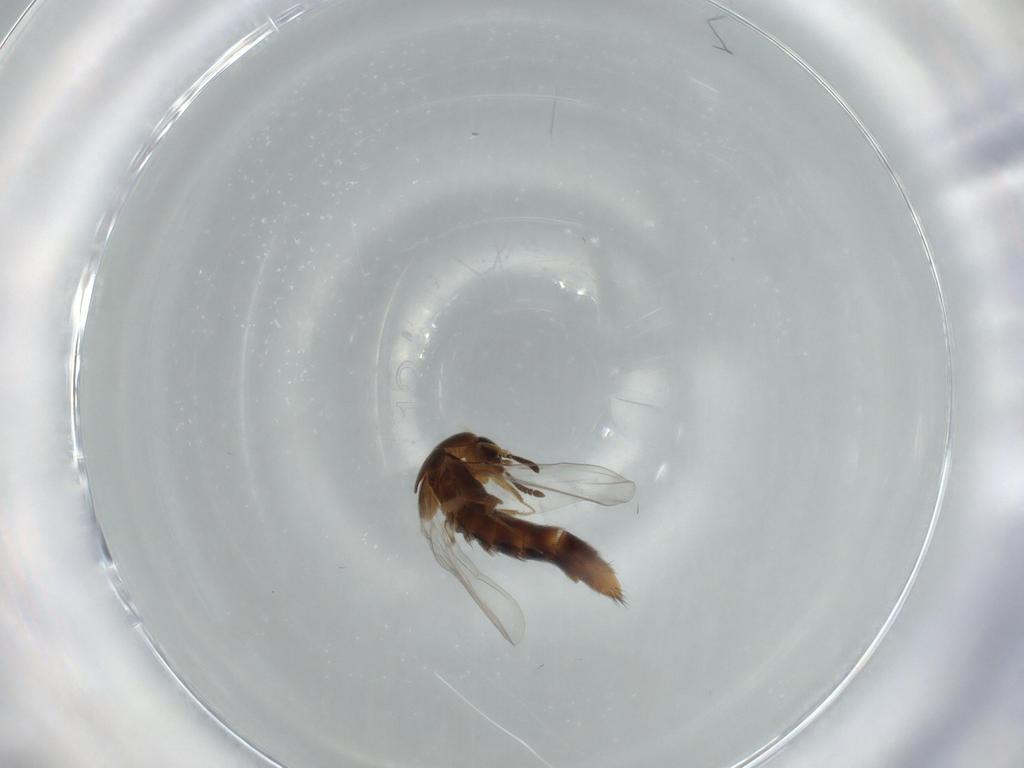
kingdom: Animalia
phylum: Arthropoda
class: Insecta
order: Coleoptera
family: Staphylinidae
